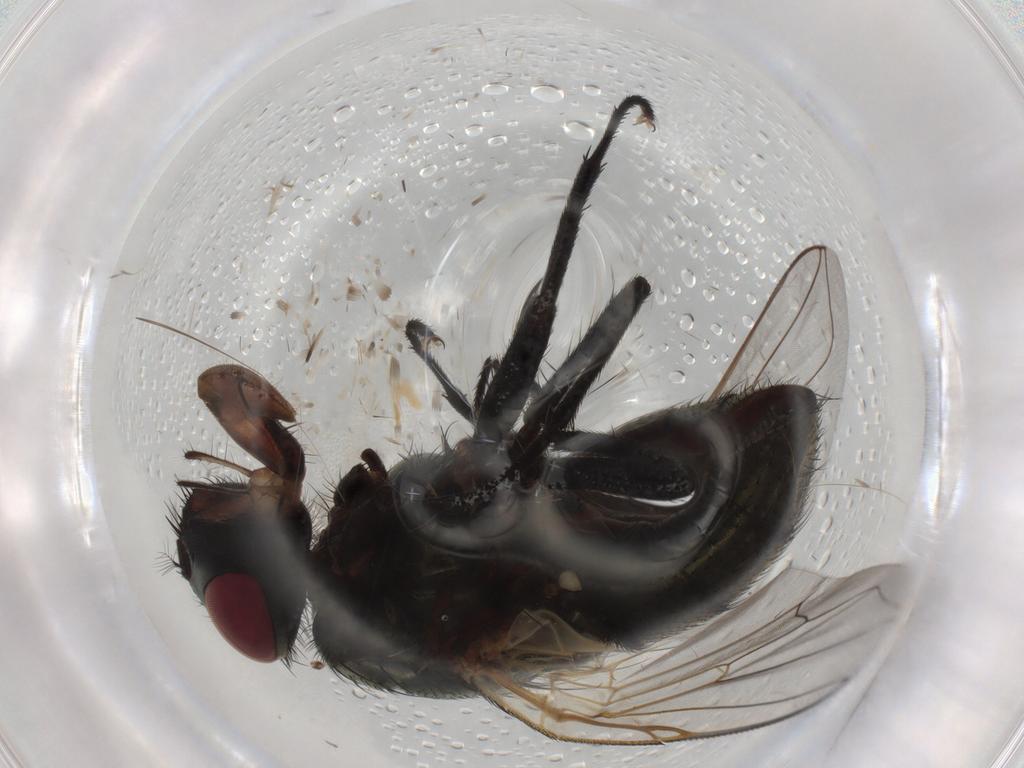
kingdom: Animalia
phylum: Arthropoda
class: Insecta
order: Diptera
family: Muscidae
